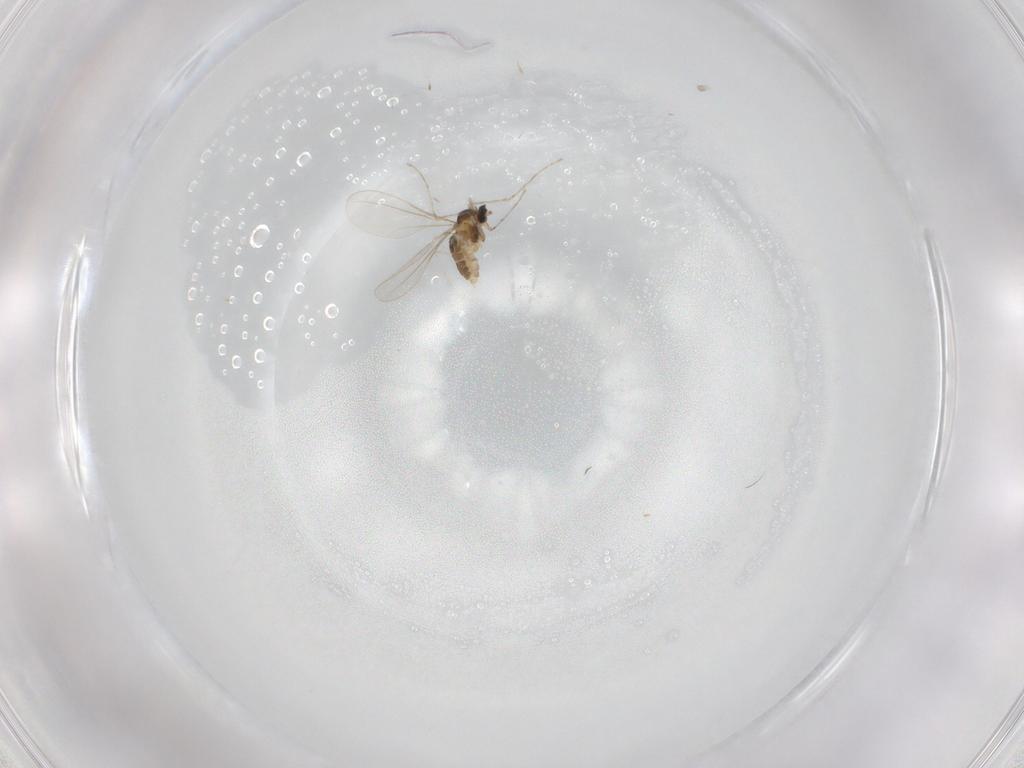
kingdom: Animalia
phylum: Arthropoda
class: Insecta
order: Diptera
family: Cecidomyiidae
